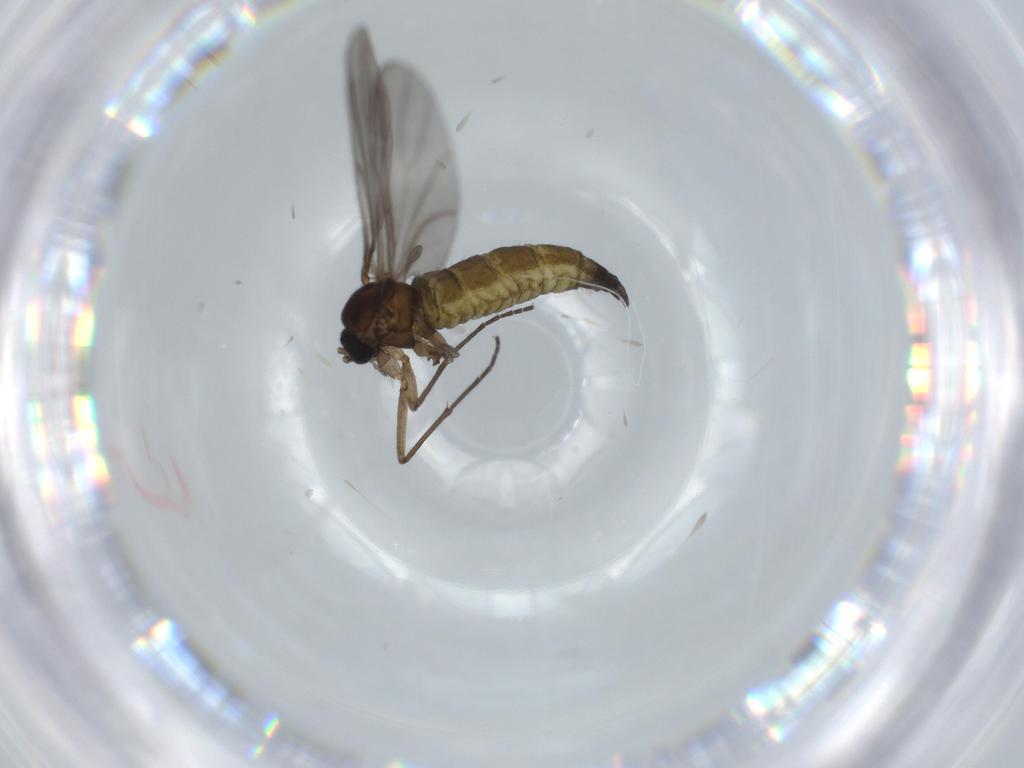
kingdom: Animalia
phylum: Arthropoda
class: Insecta
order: Diptera
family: Sciaridae
